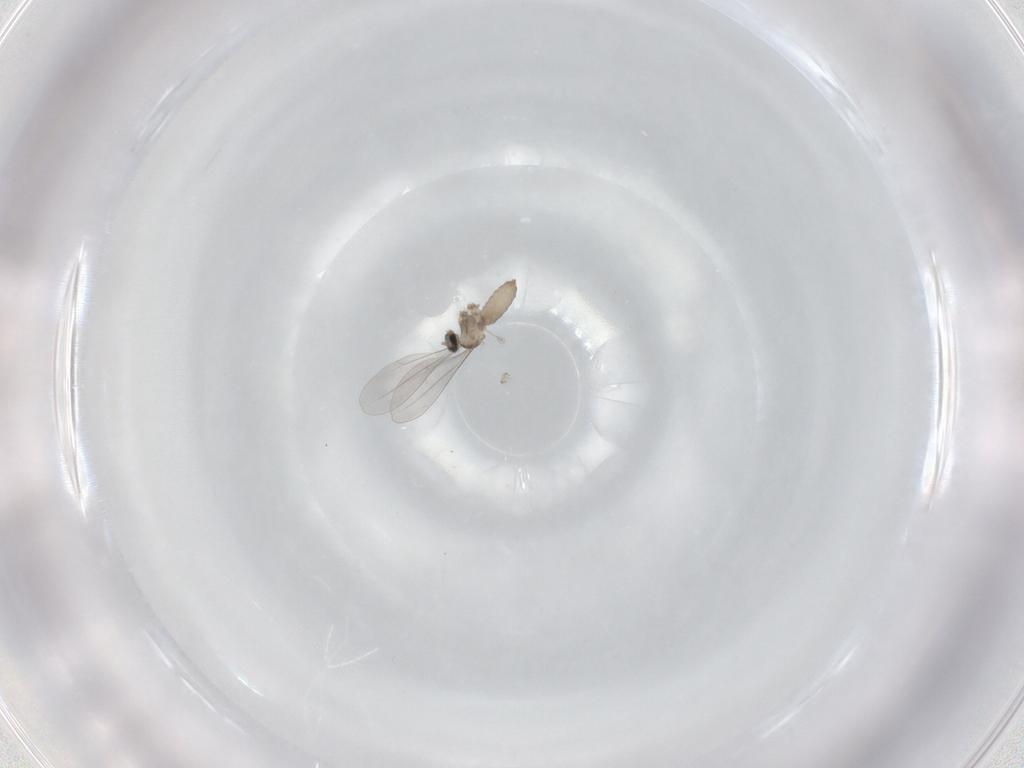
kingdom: Animalia
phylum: Arthropoda
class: Insecta
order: Diptera
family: Cecidomyiidae
